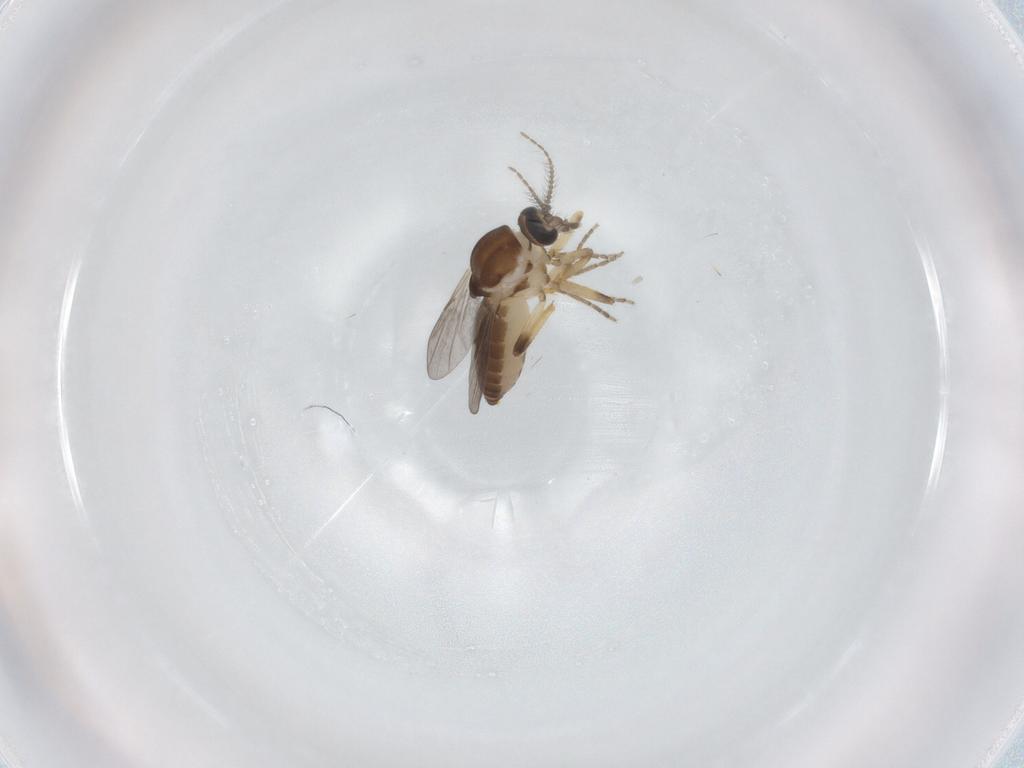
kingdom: Animalia
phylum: Arthropoda
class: Insecta
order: Diptera
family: Ceratopogonidae
